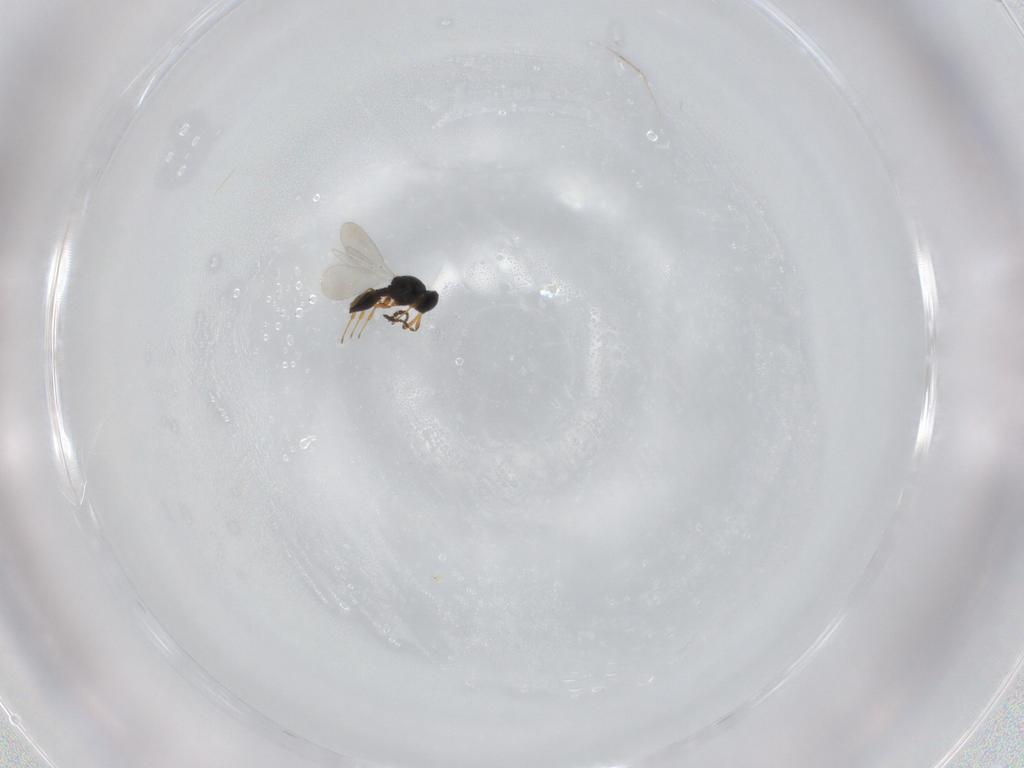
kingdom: Animalia
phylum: Arthropoda
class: Insecta
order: Hymenoptera
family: Platygastridae
